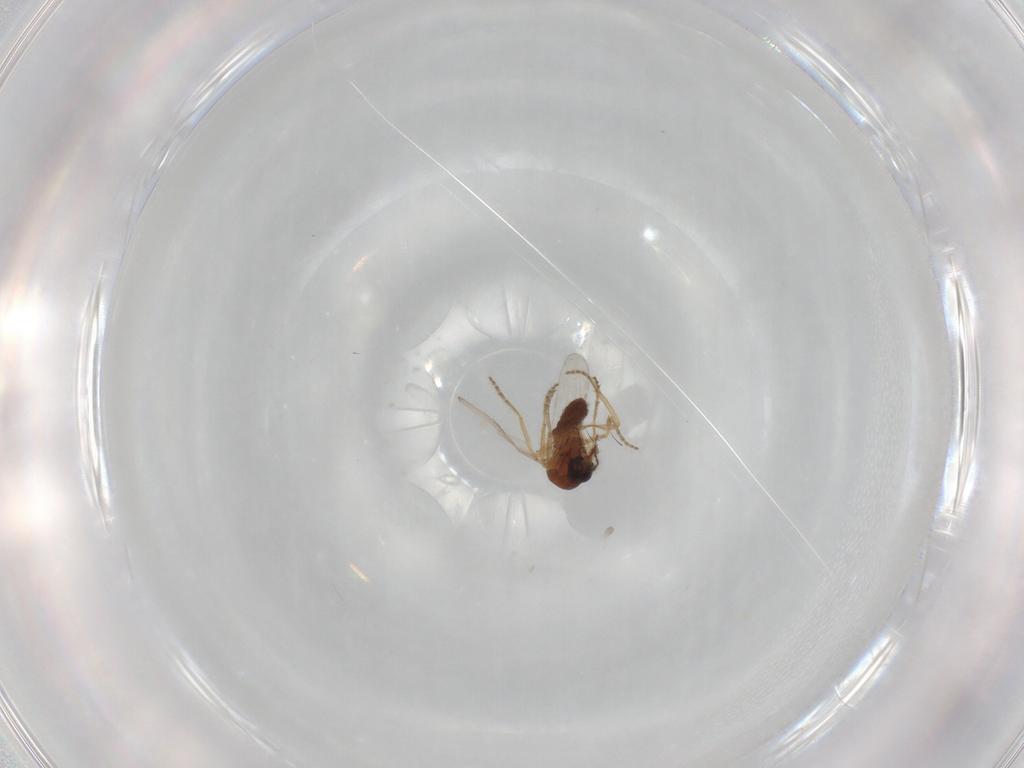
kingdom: Animalia
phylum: Arthropoda
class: Insecta
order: Diptera
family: Ceratopogonidae
